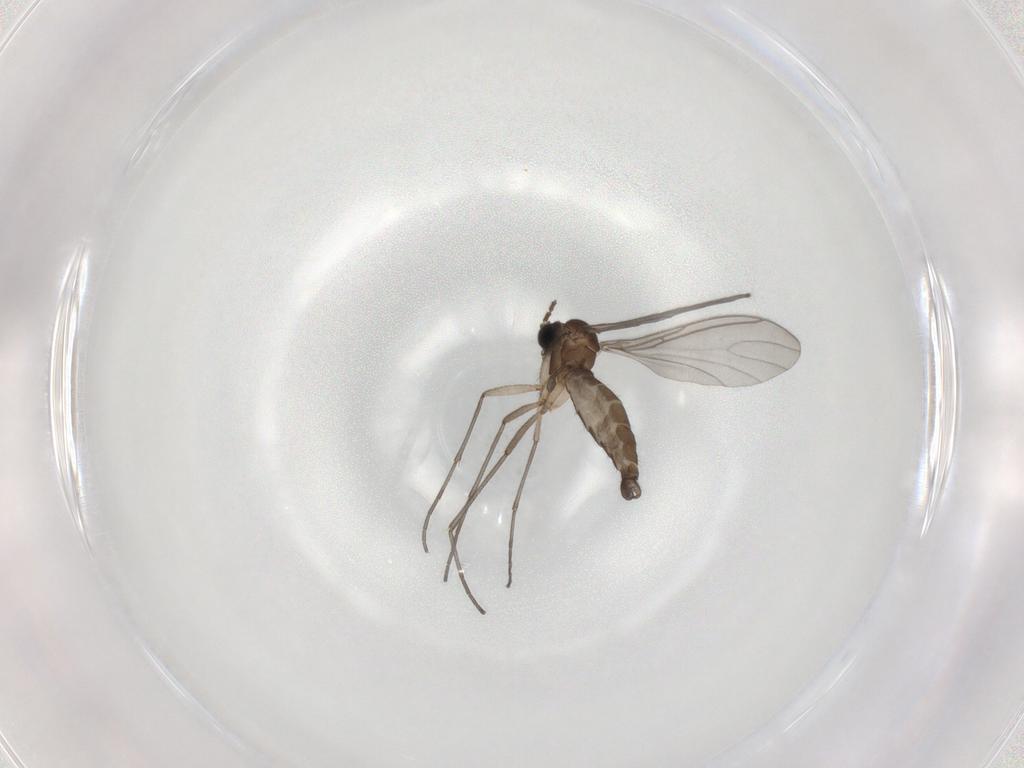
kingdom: Animalia
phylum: Arthropoda
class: Insecta
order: Diptera
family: Sciaridae
